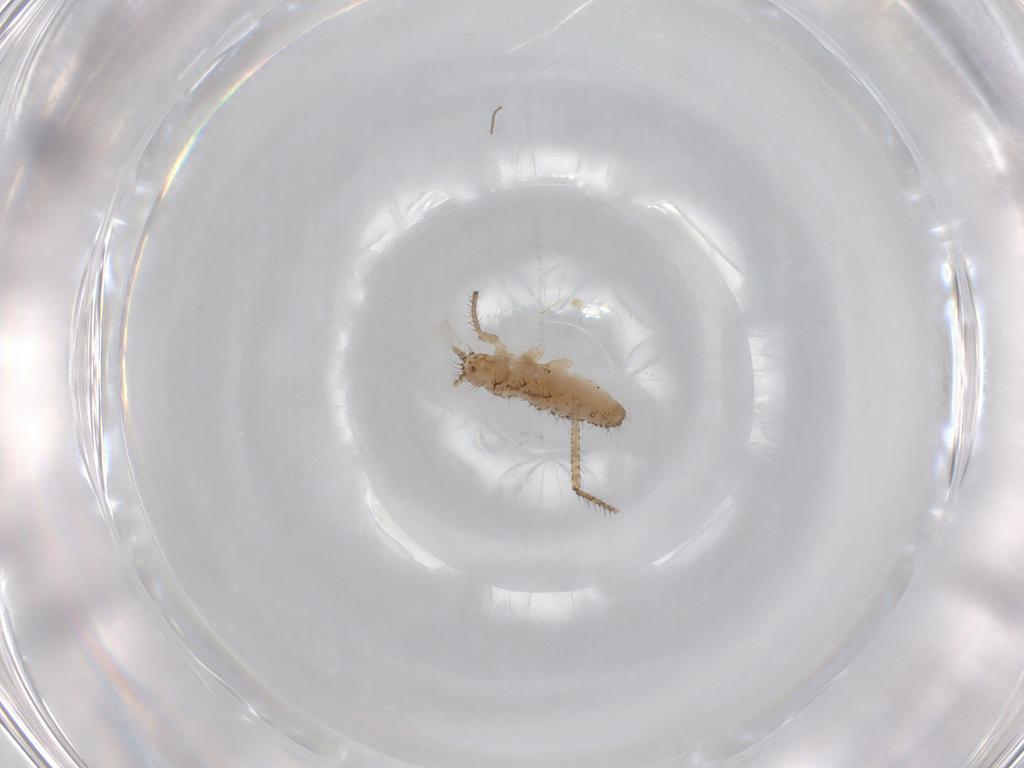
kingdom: Animalia
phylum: Arthropoda
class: Insecta
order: Hemiptera
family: Aphididae
